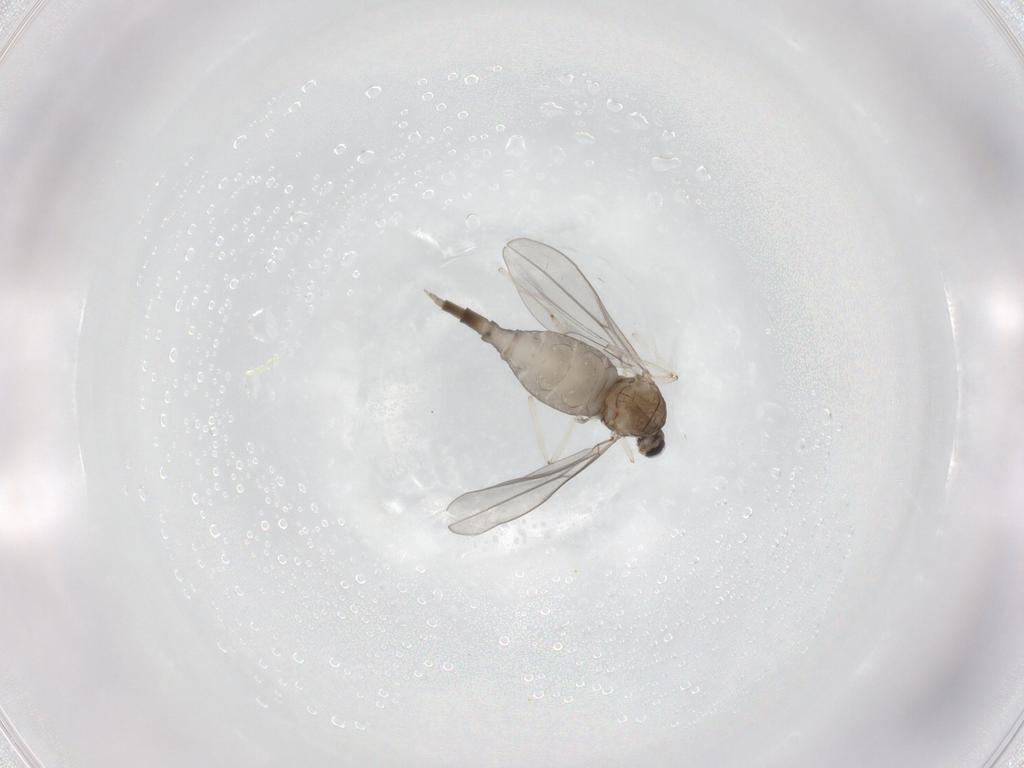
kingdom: Animalia
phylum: Arthropoda
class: Insecta
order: Diptera
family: Cecidomyiidae
